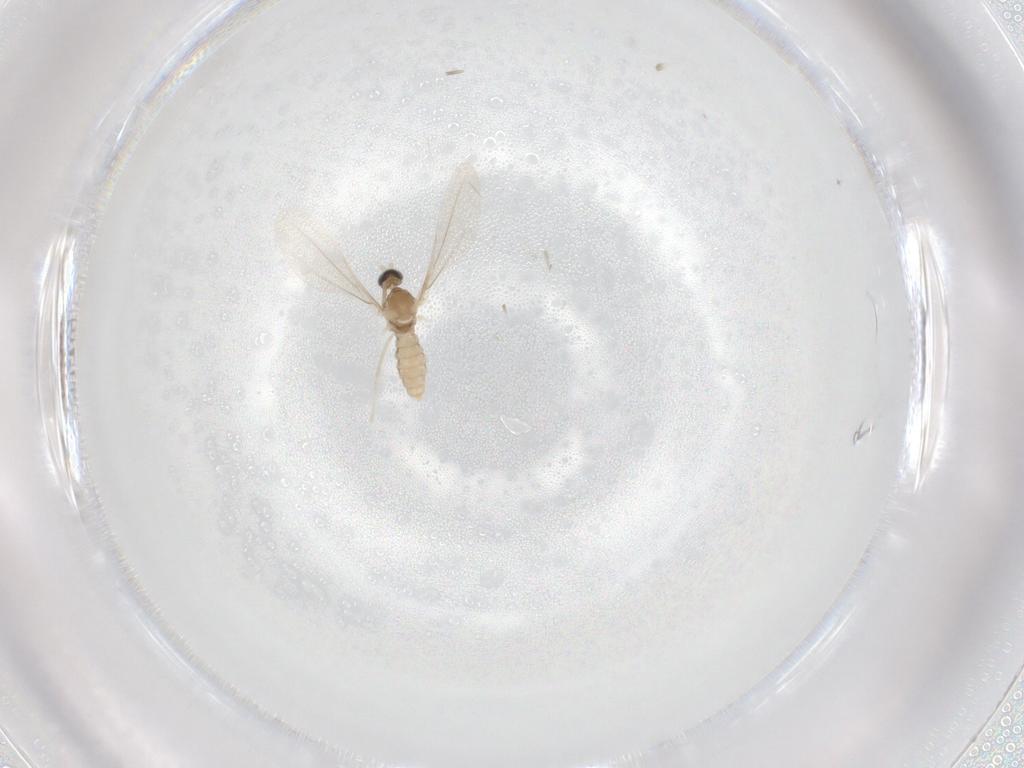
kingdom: Animalia
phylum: Arthropoda
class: Insecta
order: Diptera
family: Cecidomyiidae
